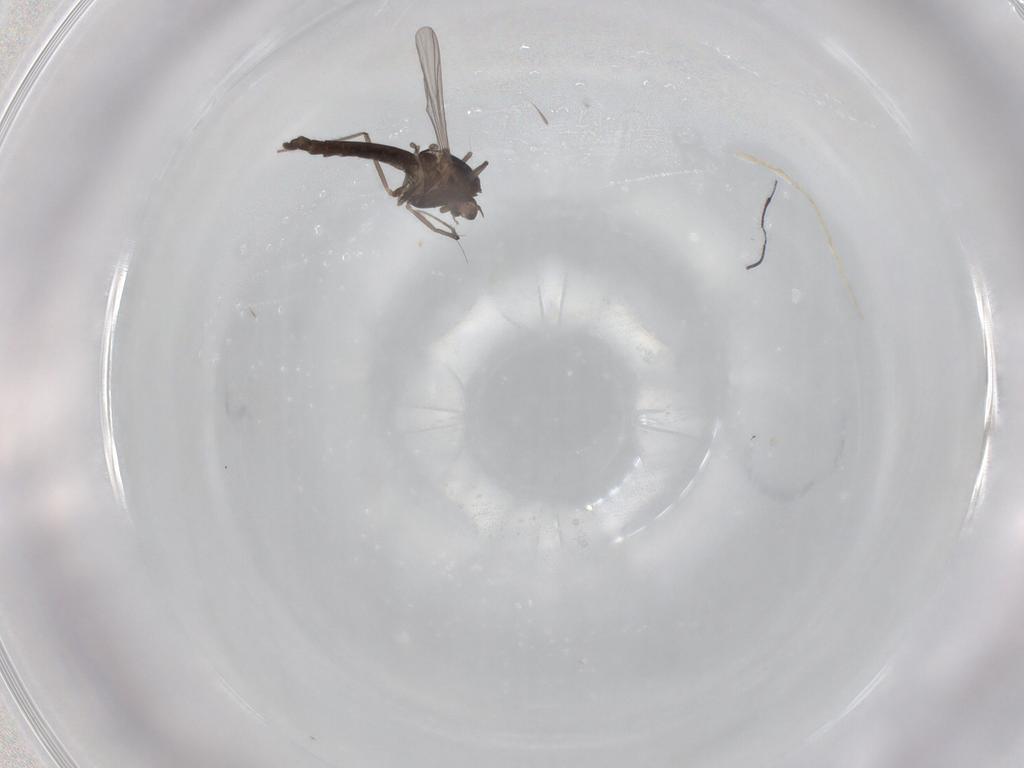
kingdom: Animalia
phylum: Arthropoda
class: Insecta
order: Diptera
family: Chironomidae
